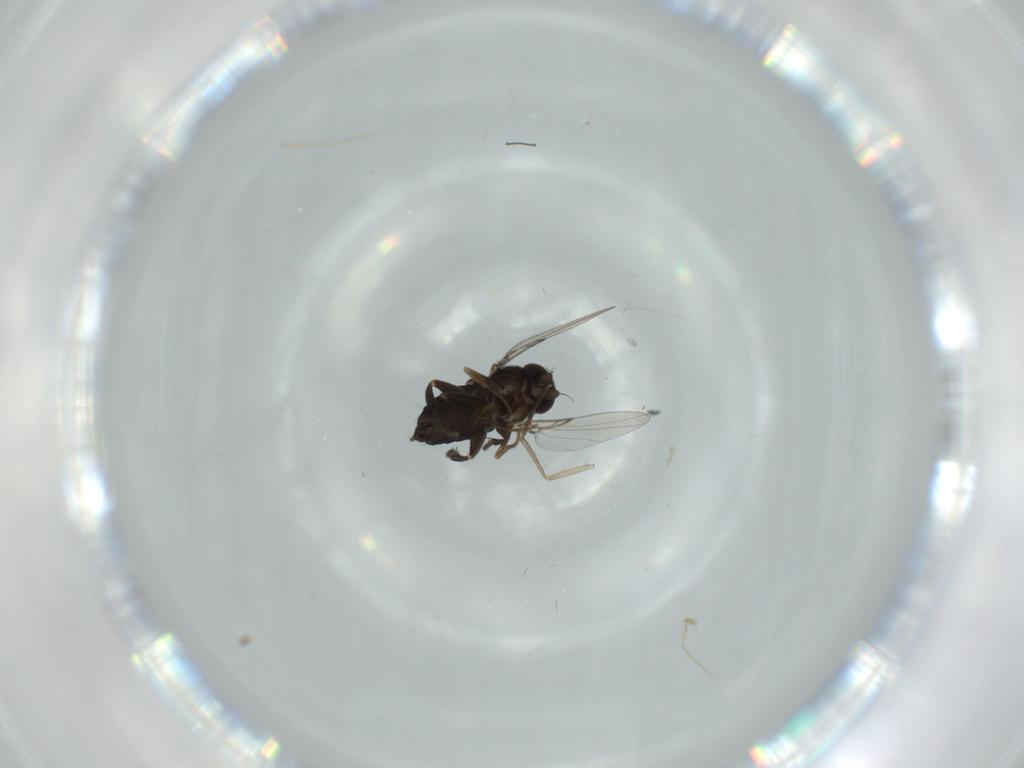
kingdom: Animalia
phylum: Arthropoda
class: Insecta
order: Diptera
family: Phoridae
